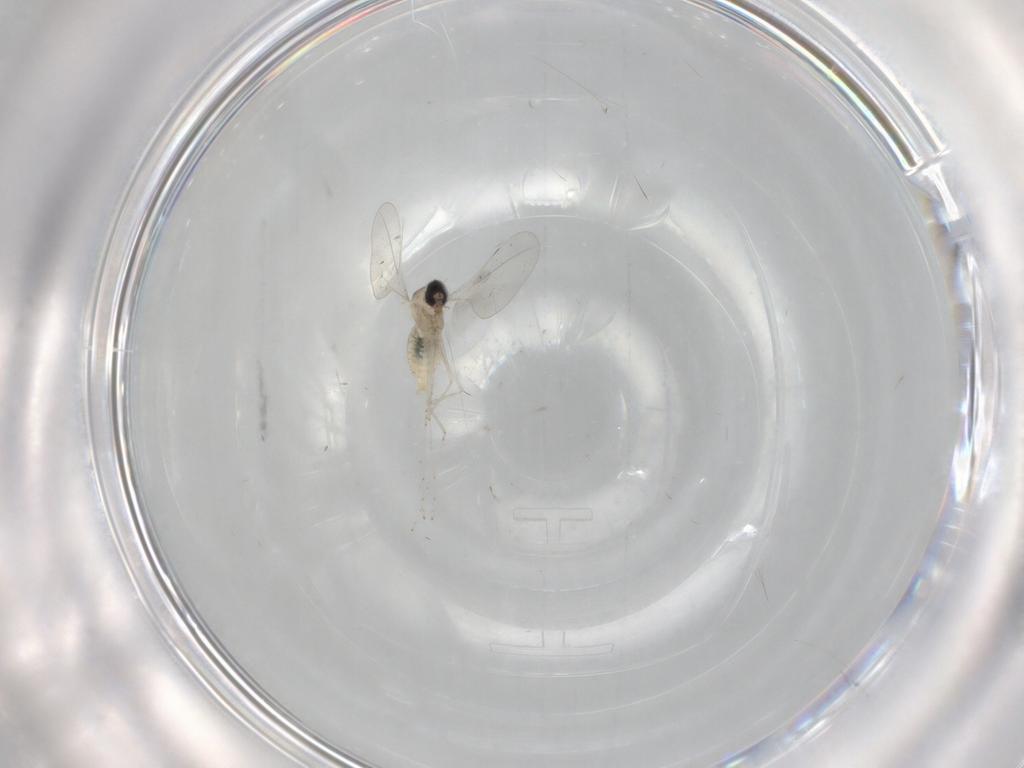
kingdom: Animalia
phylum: Arthropoda
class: Insecta
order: Diptera
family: Cecidomyiidae
